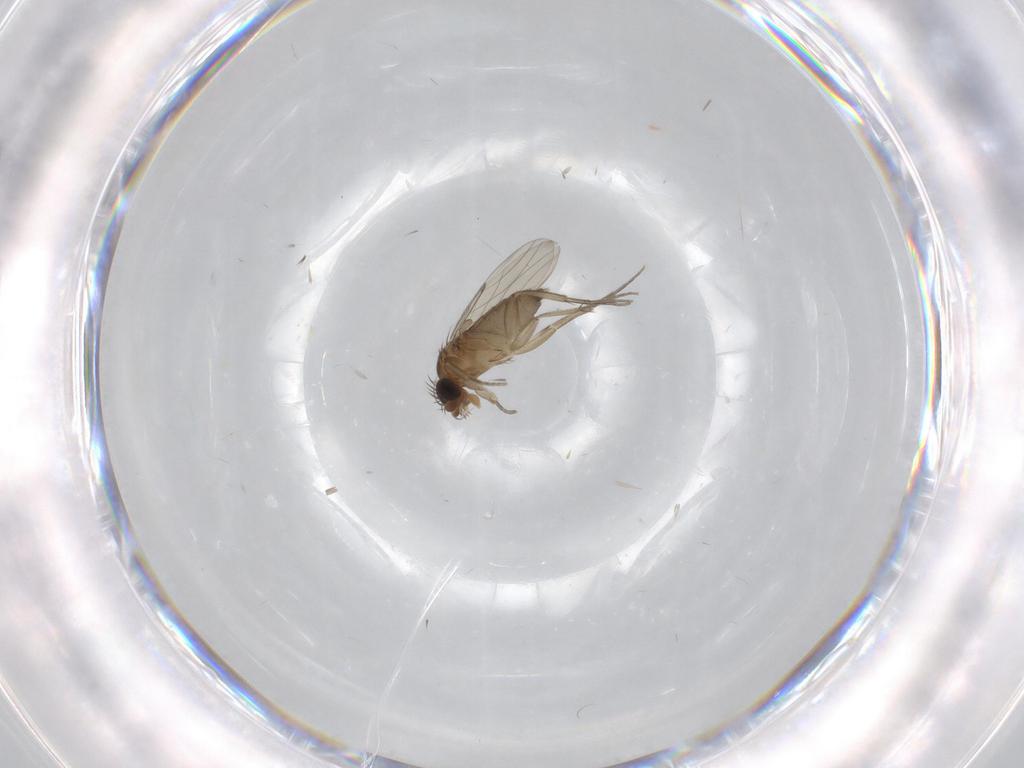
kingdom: Animalia
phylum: Arthropoda
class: Insecta
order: Diptera
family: Phoridae
